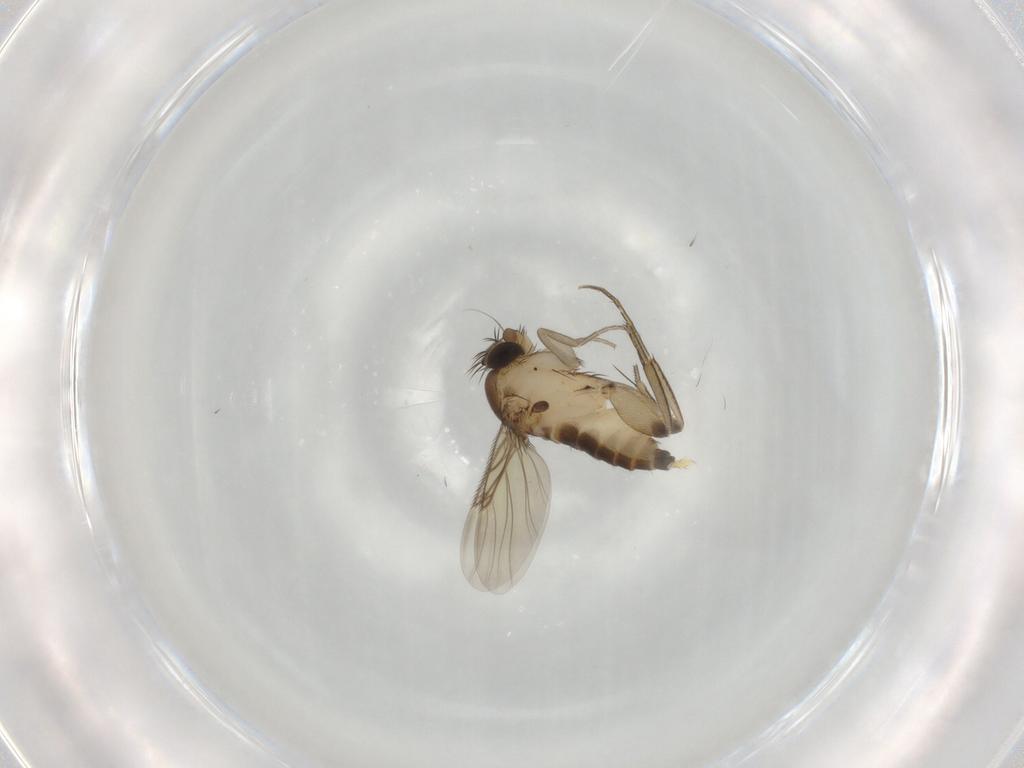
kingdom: Animalia
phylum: Arthropoda
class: Insecta
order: Diptera
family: Phoridae
